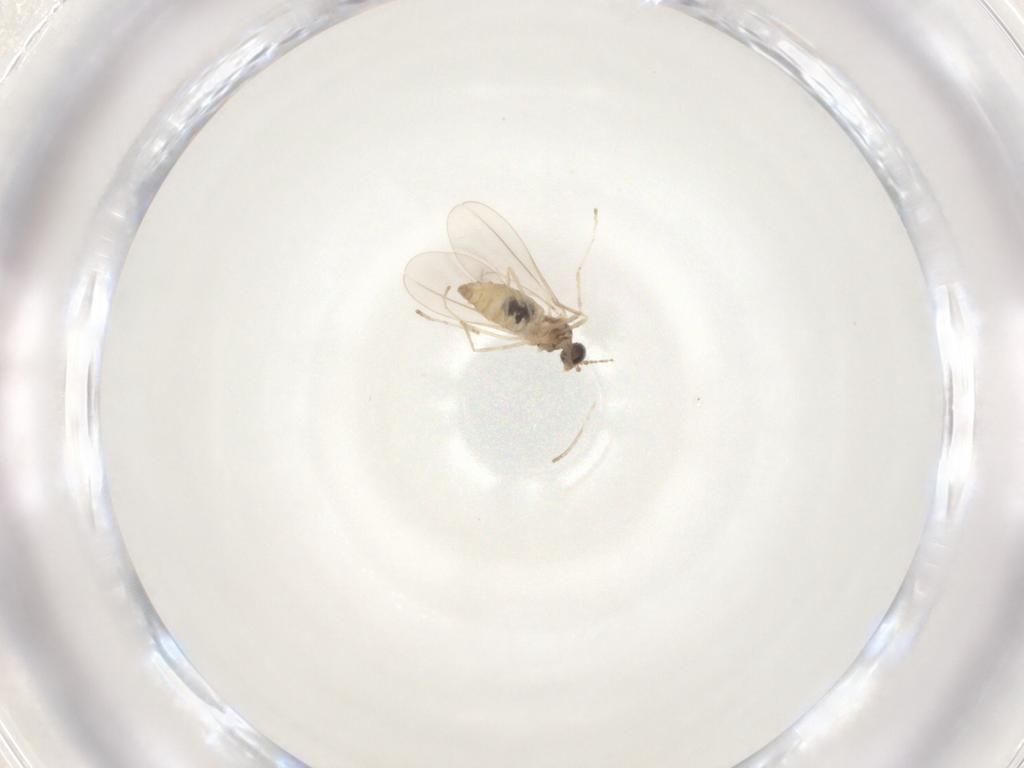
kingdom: Animalia
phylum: Arthropoda
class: Insecta
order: Diptera
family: Cecidomyiidae
